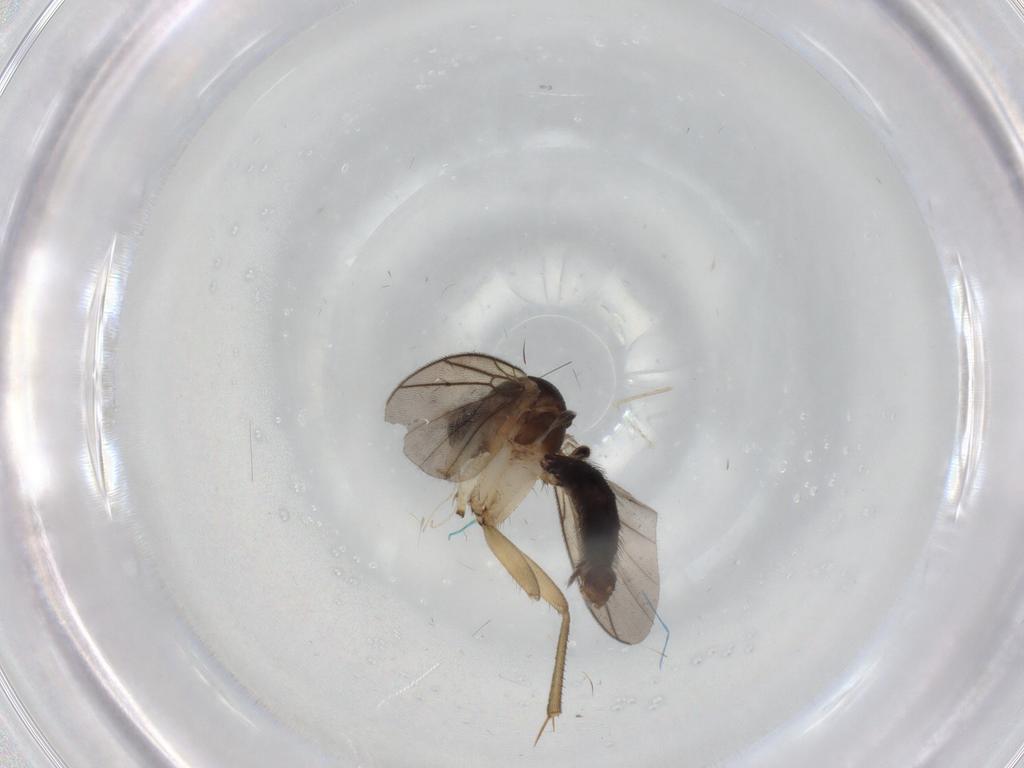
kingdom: Animalia
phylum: Arthropoda
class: Insecta
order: Diptera
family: Mycetophilidae
